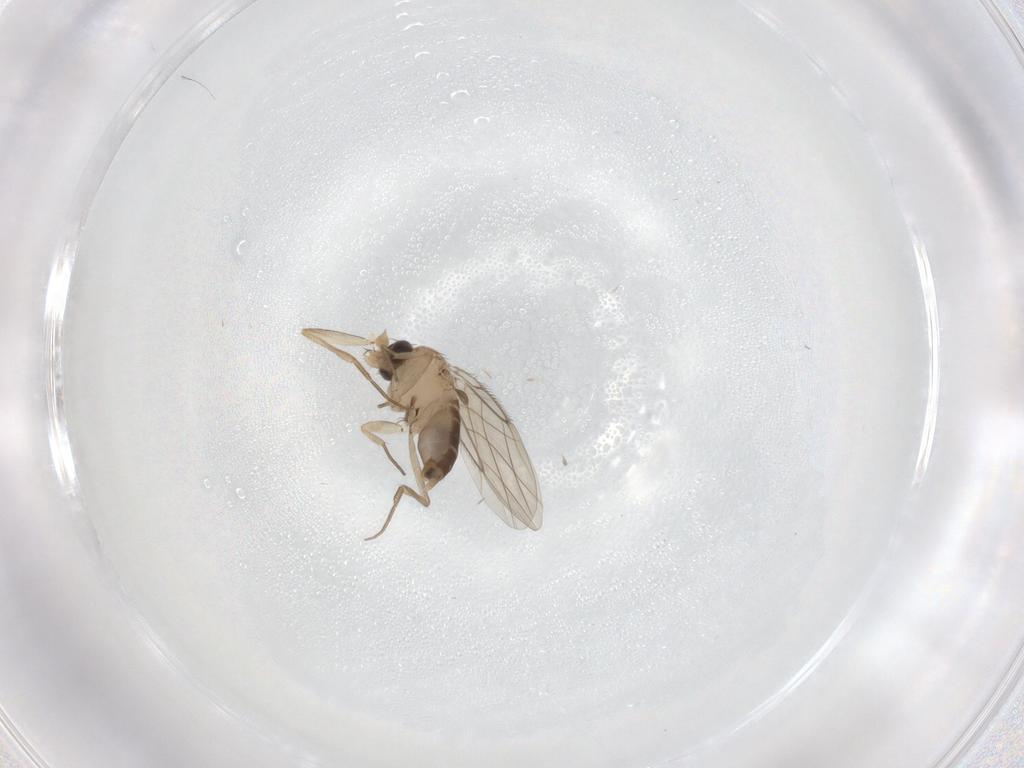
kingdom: Animalia
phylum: Arthropoda
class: Insecta
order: Diptera
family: Phoridae
